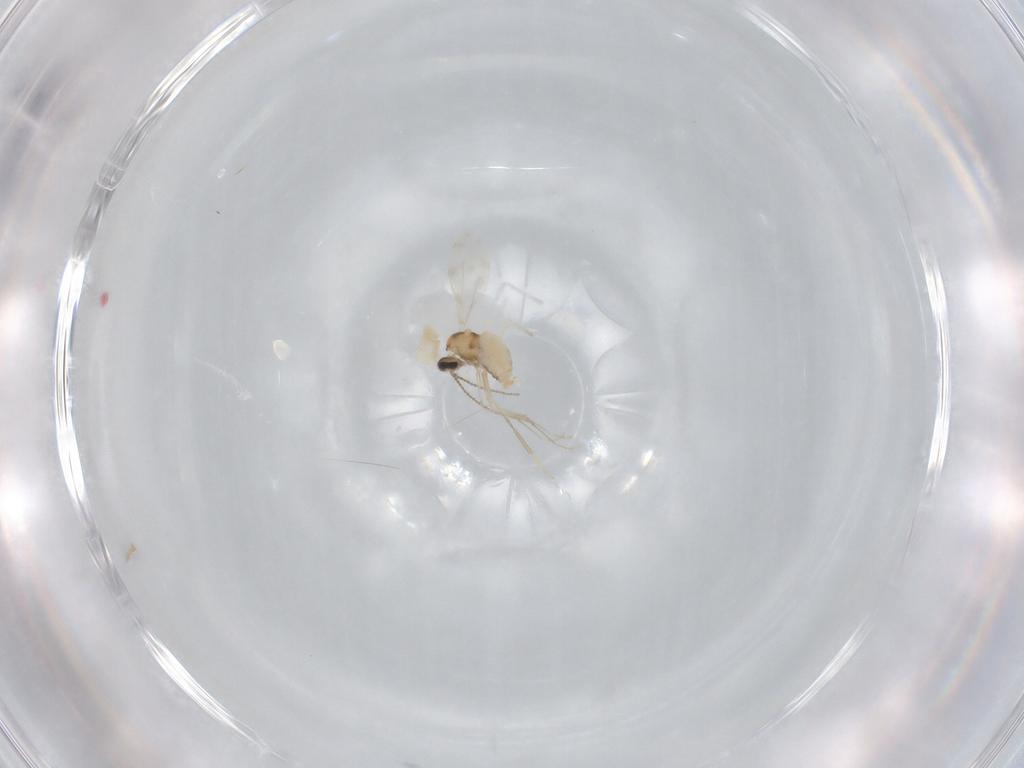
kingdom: Animalia
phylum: Arthropoda
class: Insecta
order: Diptera
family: Cecidomyiidae
